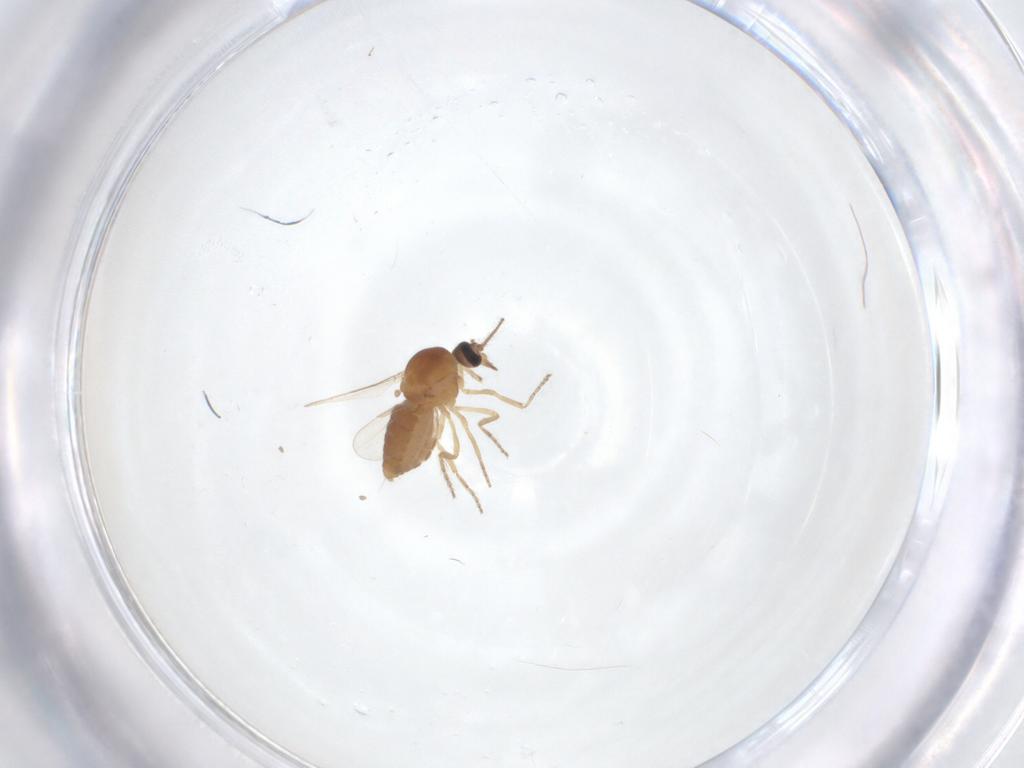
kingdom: Animalia
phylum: Arthropoda
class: Insecta
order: Diptera
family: Ceratopogonidae
